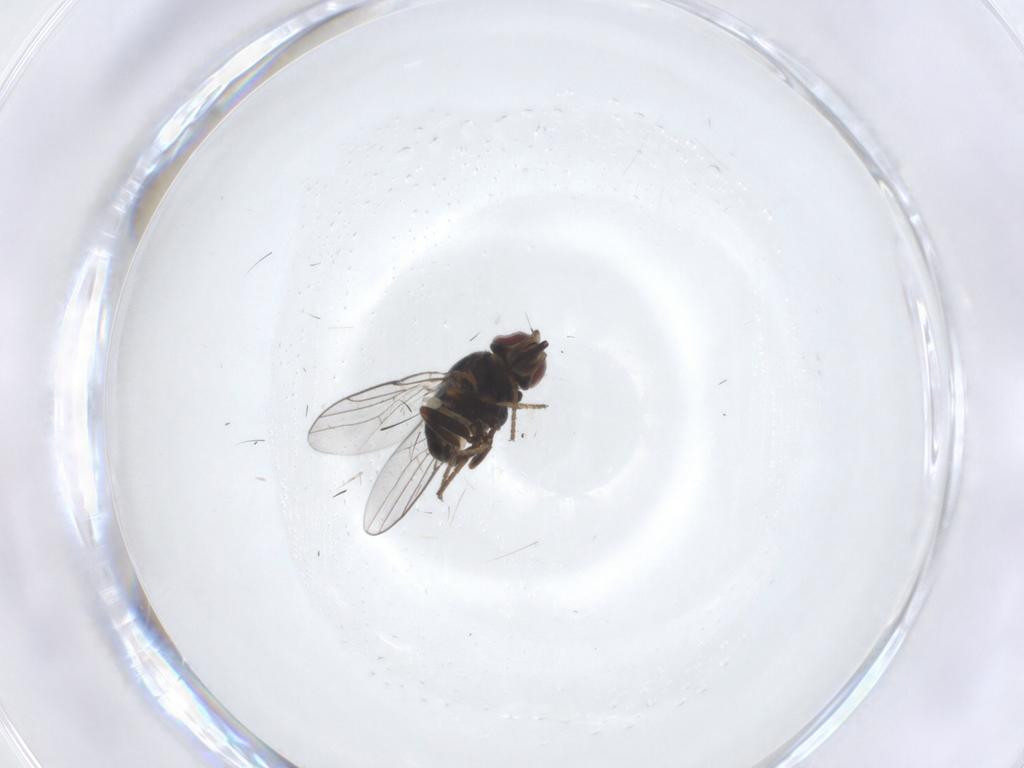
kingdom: Animalia
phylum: Arthropoda
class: Insecta
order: Diptera
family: Chloropidae
